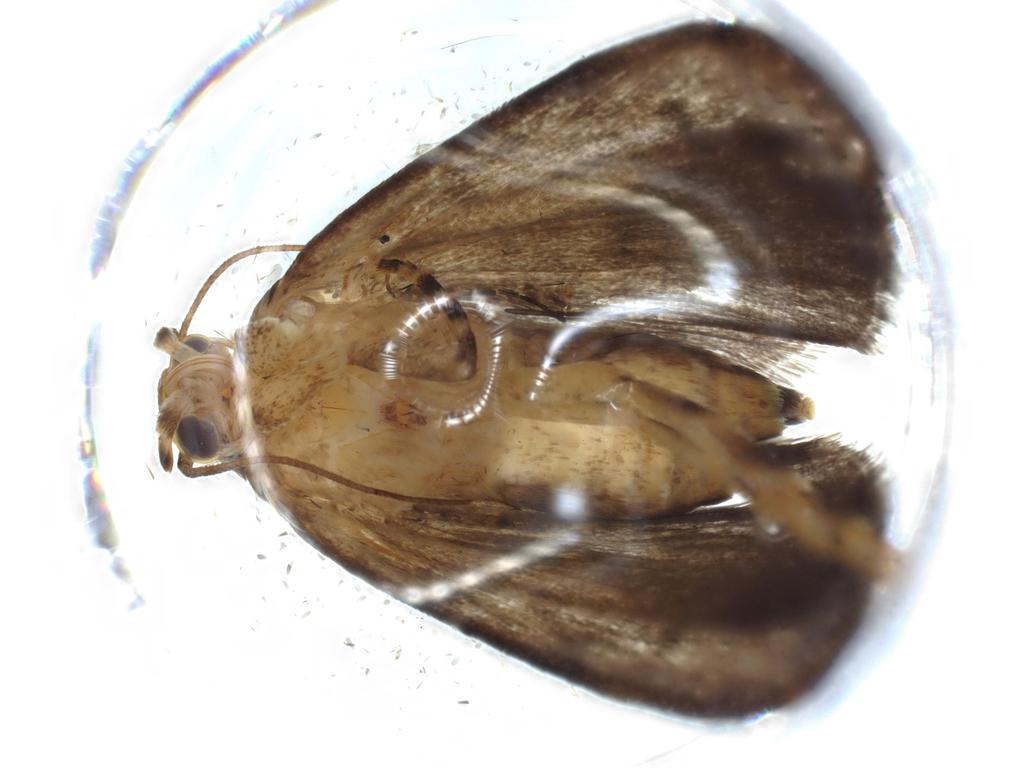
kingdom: Animalia
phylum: Arthropoda
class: Insecta
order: Lepidoptera
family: Immidae
